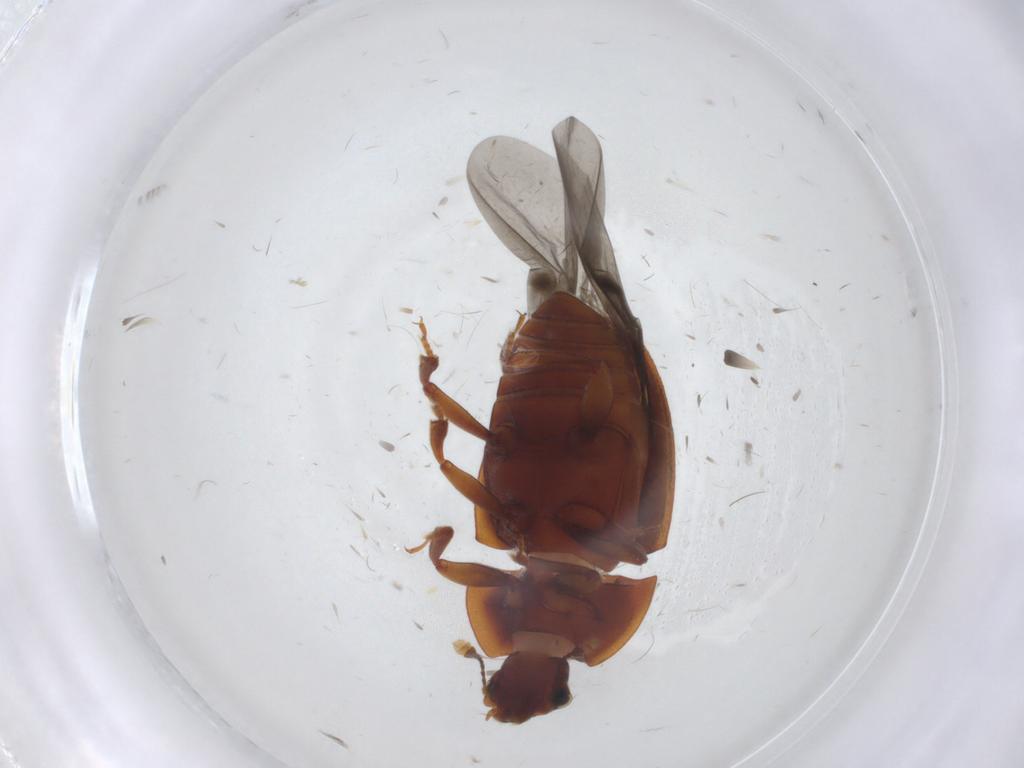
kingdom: Animalia
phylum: Arthropoda
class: Insecta
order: Coleoptera
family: Nitidulidae
